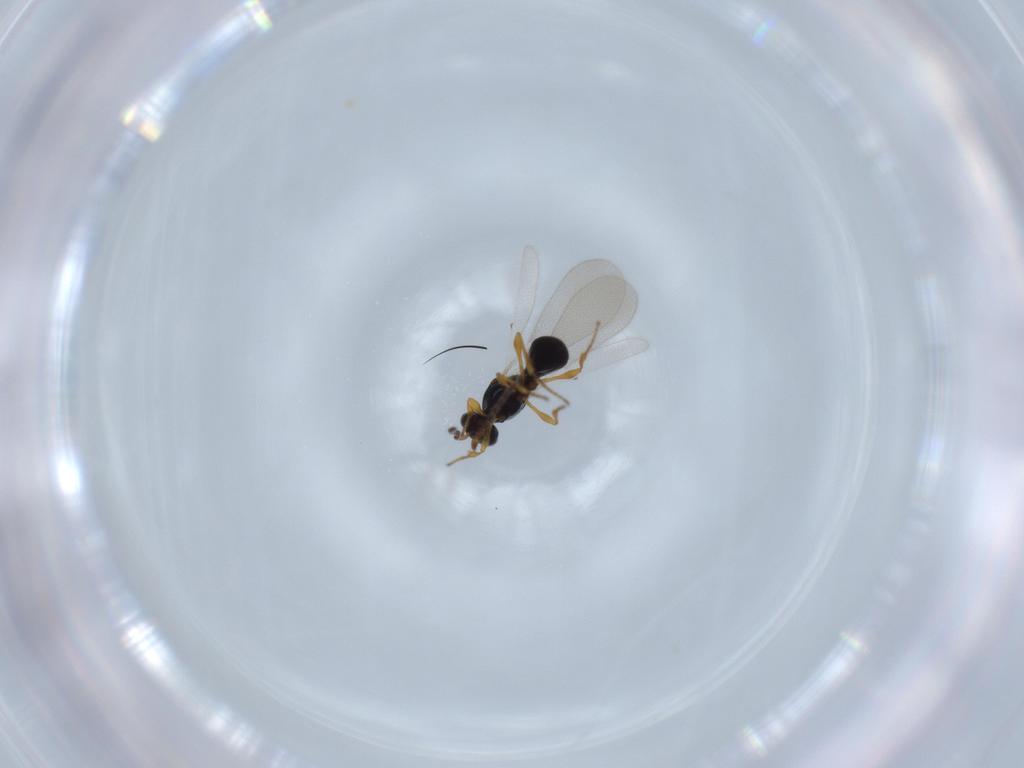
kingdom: Animalia
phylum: Arthropoda
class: Insecta
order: Diptera
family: Mythicomyiidae
